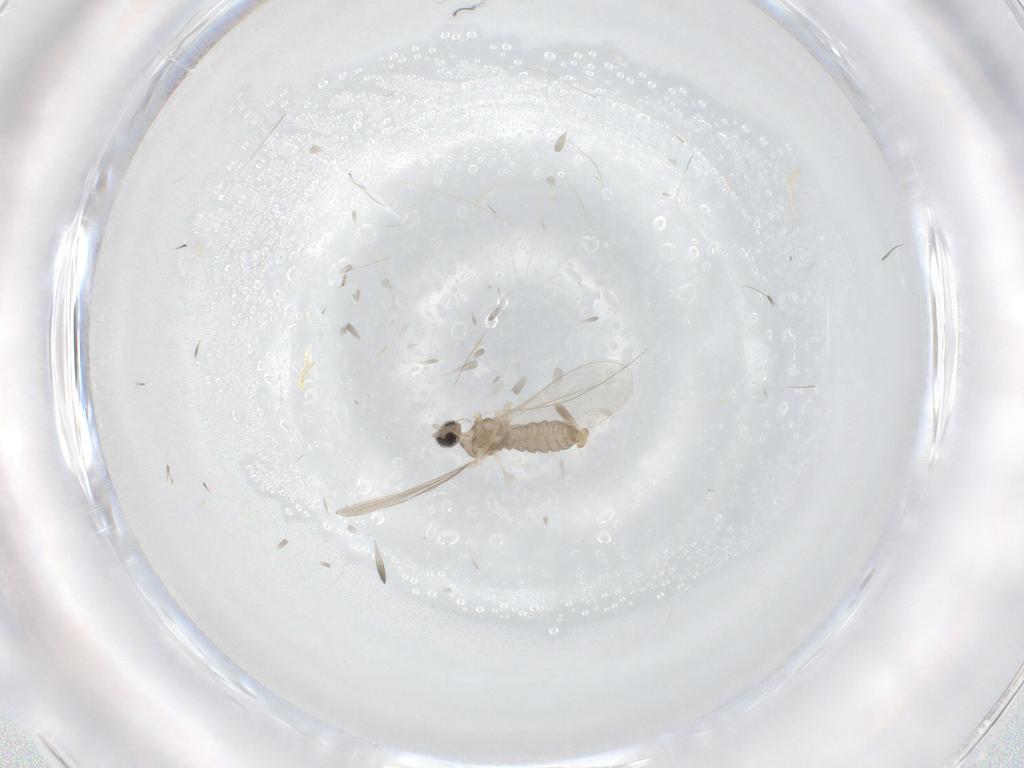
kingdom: Animalia
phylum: Arthropoda
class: Insecta
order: Diptera
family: Cecidomyiidae
